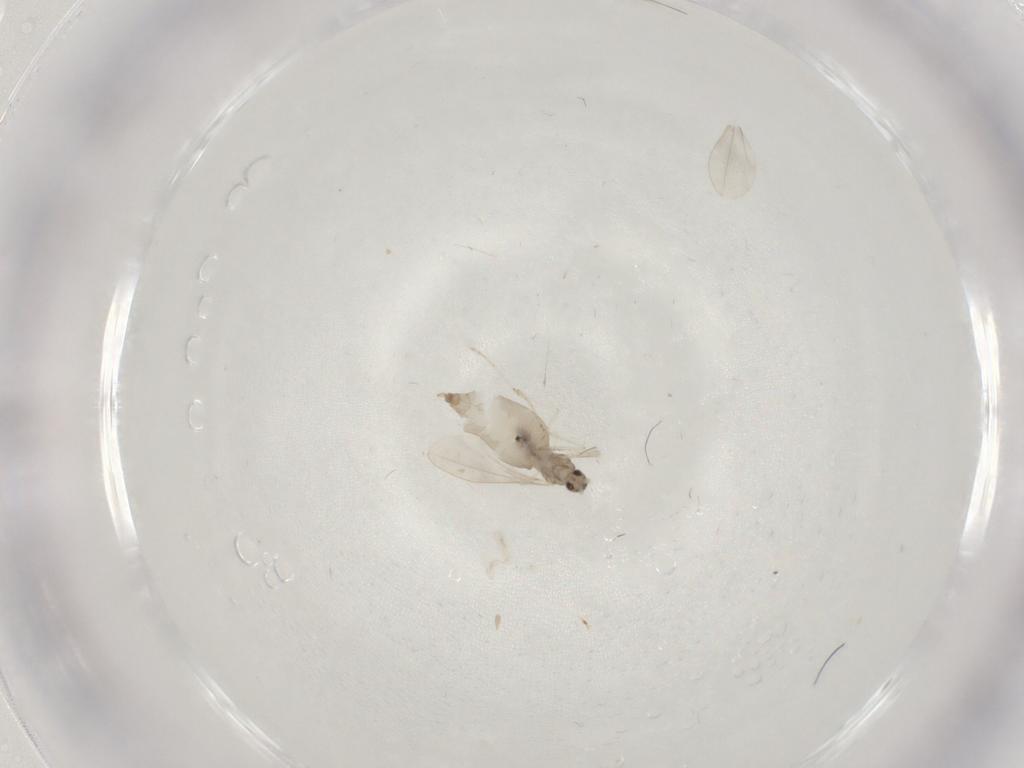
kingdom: Animalia
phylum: Arthropoda
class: Insecta
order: Diptera
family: Cecidomyiidae
